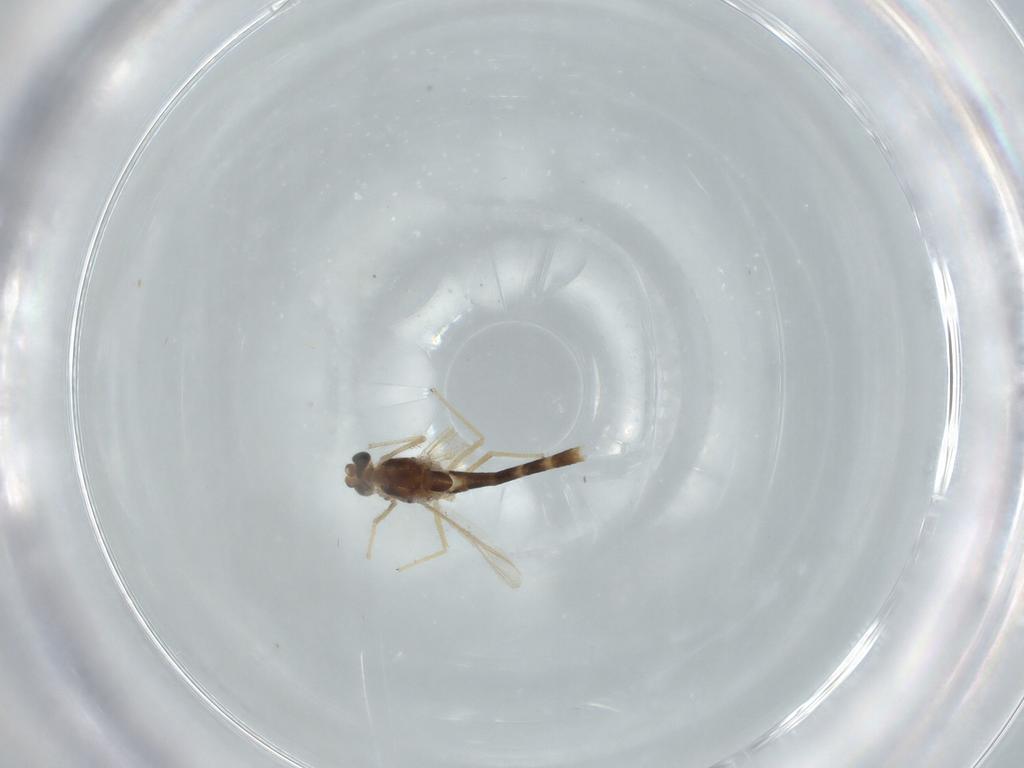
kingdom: Animalia
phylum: Arthropoda
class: Insecta
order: Diptera
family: Chironomidae
